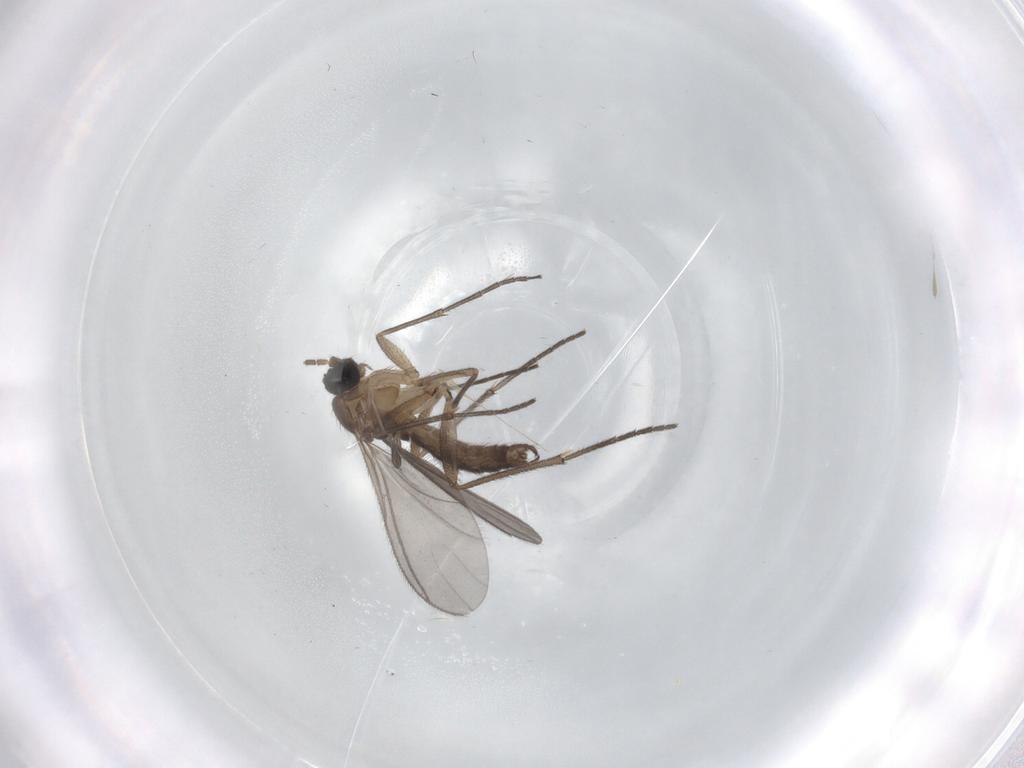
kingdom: Animalia
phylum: Arthropoda
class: Insecta
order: Diptera
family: Sciaridae
